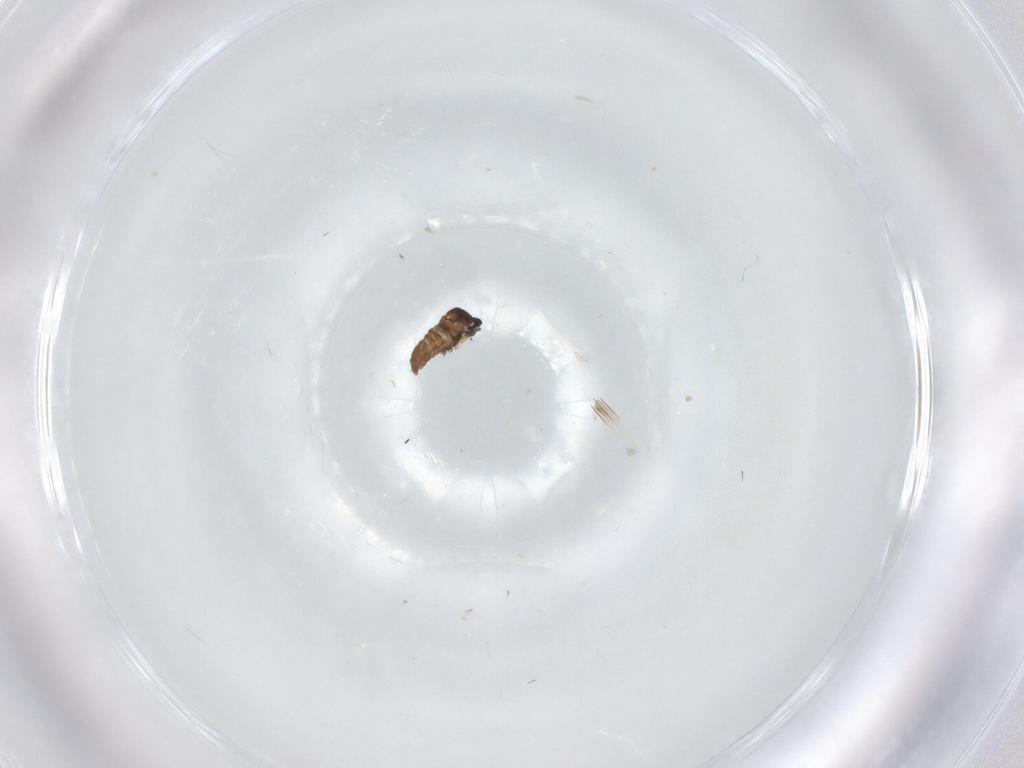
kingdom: Animalia
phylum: Arthropoda
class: Insecta
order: Diptera
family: Cecidomyiidae
